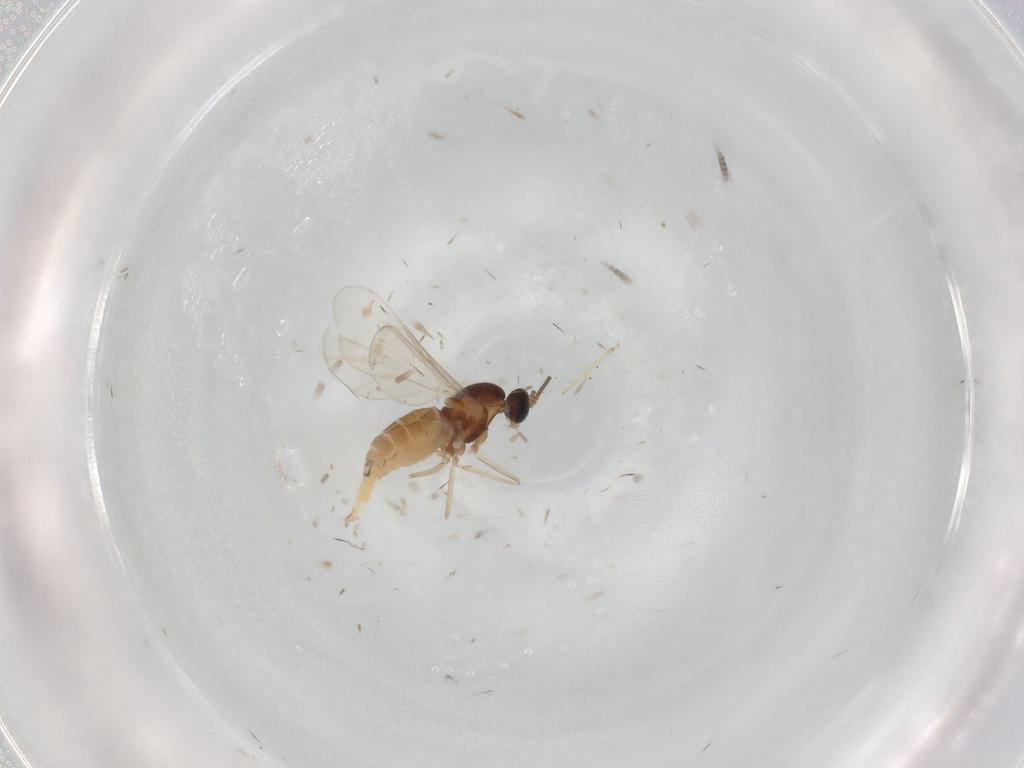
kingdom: Animalia
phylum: Arthropoda
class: Insecta
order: Diptera
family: Cecidomyiidae
